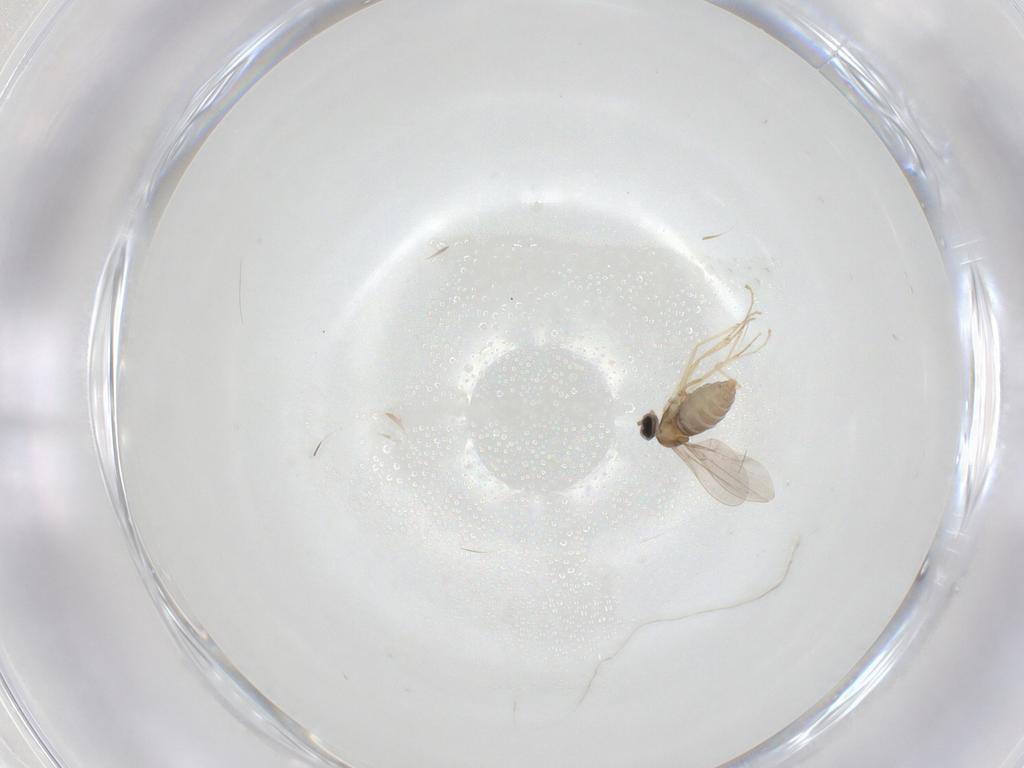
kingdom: Animalia
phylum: Arthropoda
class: Insecta
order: Diptera
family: Cecidomyiidae
